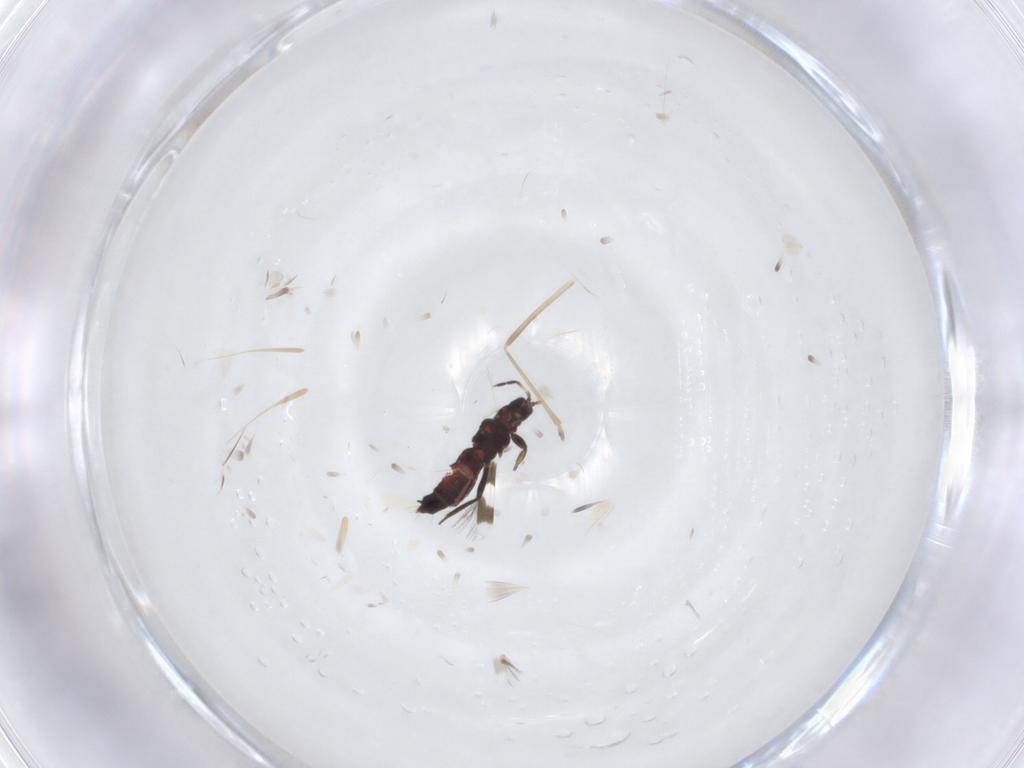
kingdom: Animalia
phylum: Arthropoda
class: Insecta
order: Thysanoptera
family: Aeolothripidae
